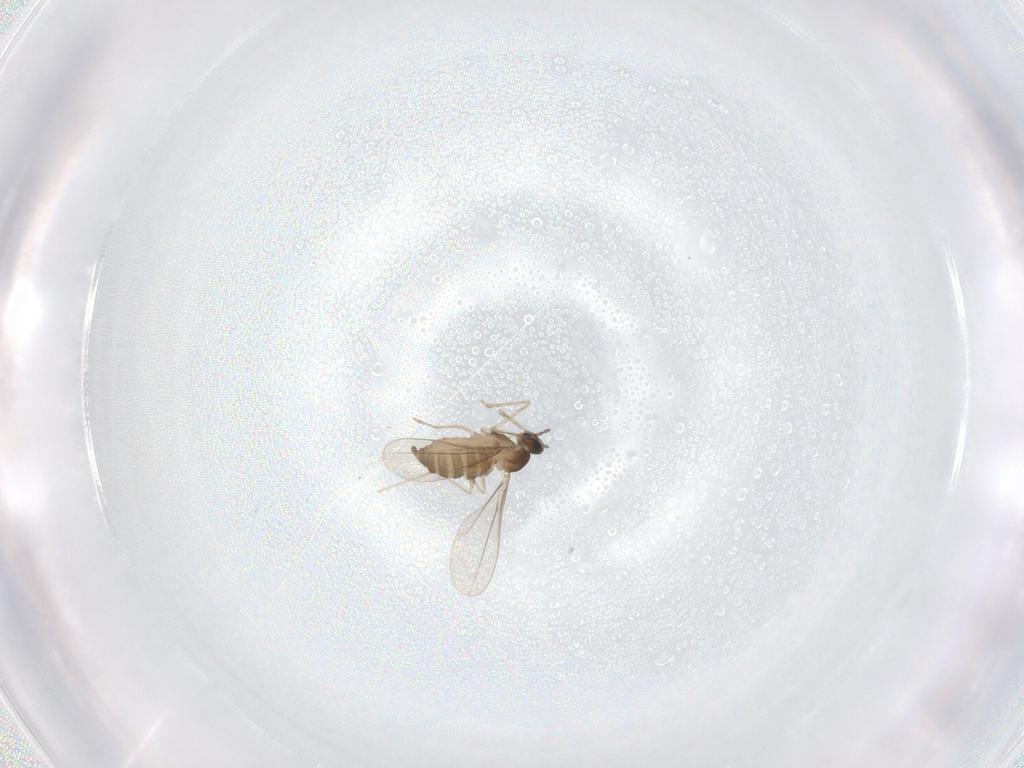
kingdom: Animalia
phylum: Arthropoda
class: Insecta
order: Diptera
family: Cecidomyiidae
